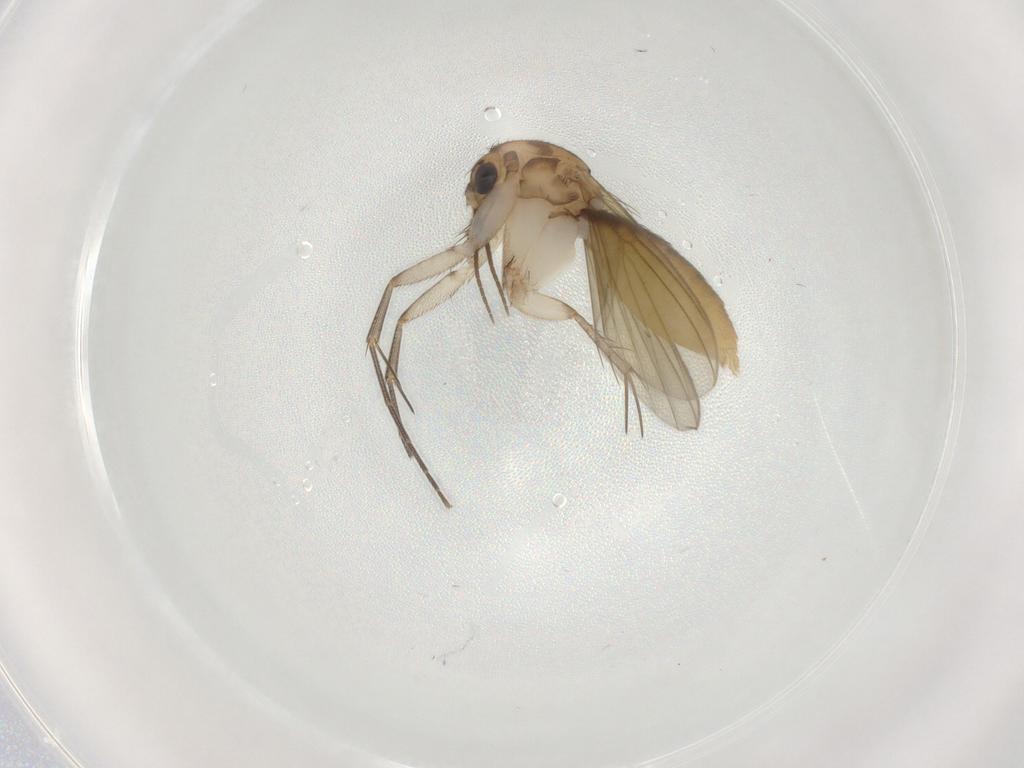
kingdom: Animalia
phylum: Arthropoda
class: Insecta
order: Diptera
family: Mycetophilidae
